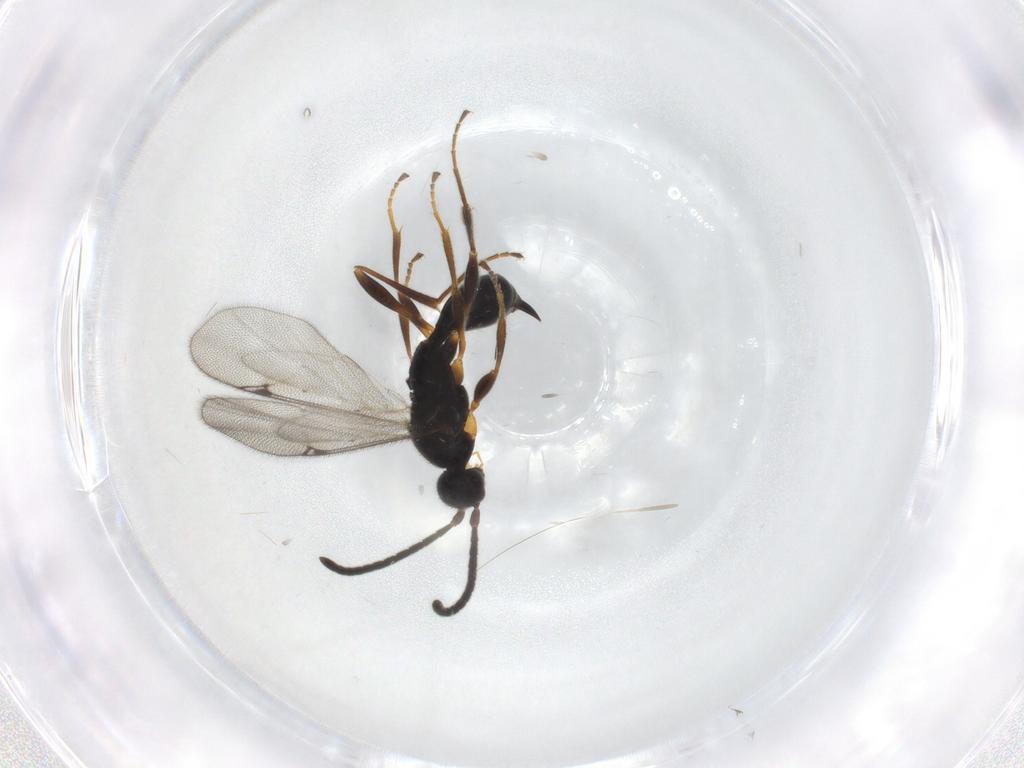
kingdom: Animalia
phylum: Arthropoda
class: Insecta
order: Hymenoptera
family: Proctotrupidae
